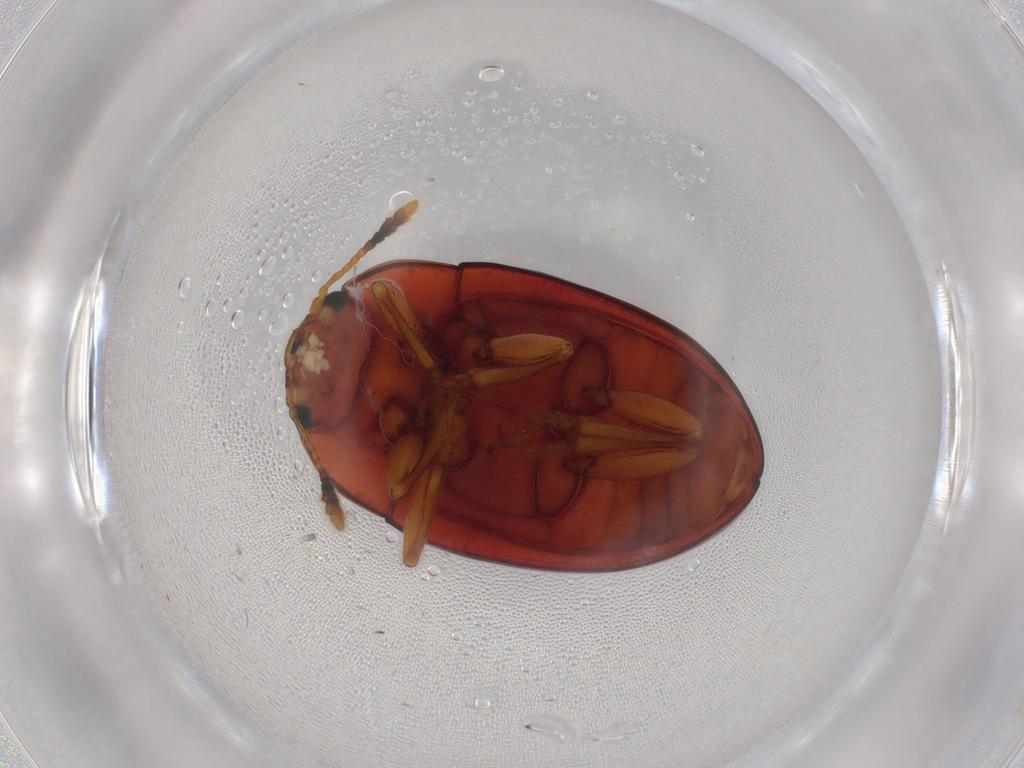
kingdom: Animalia
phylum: Arthropoda
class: Insecta
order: Coleoptera
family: Erotylidae
